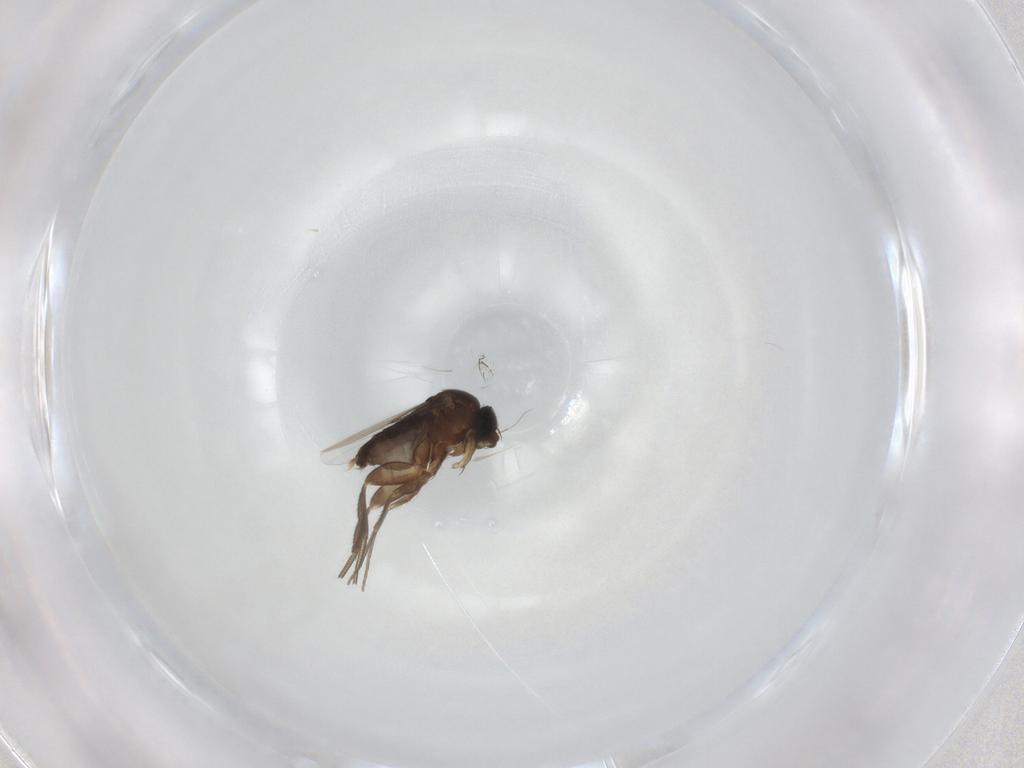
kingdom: Animalia
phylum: Arthropoda
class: Insecta
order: Diptera
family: Phoridae
